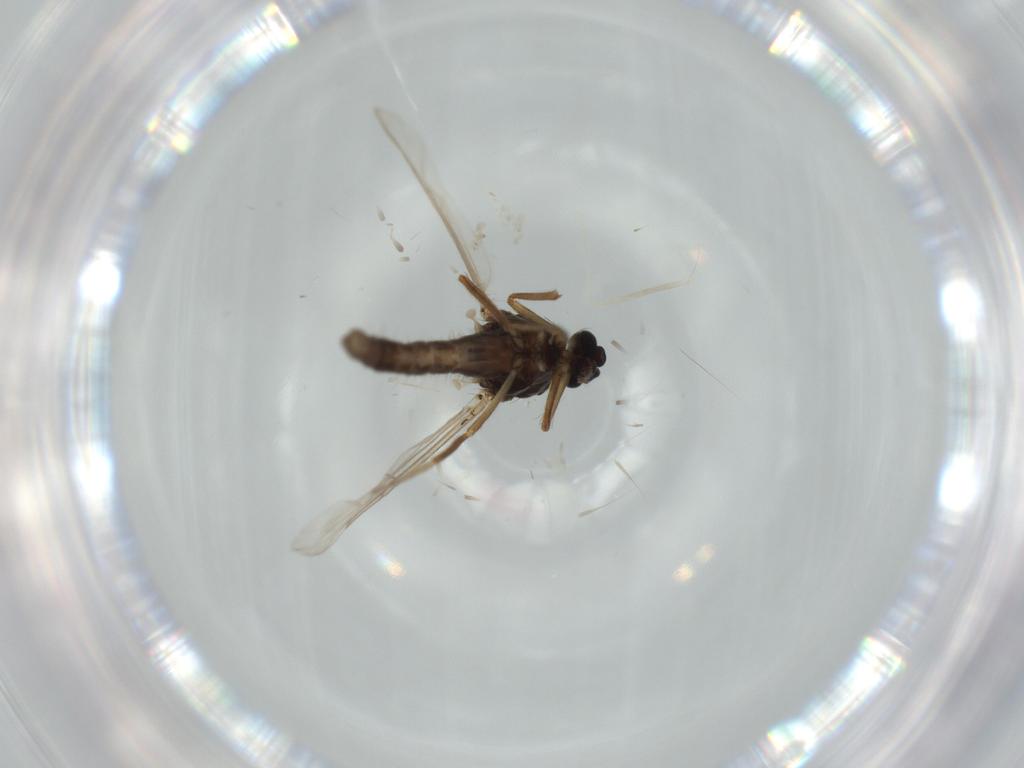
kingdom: Animalia
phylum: Arthropoda
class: Insecta
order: Diptera
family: Ceratopogonidae
